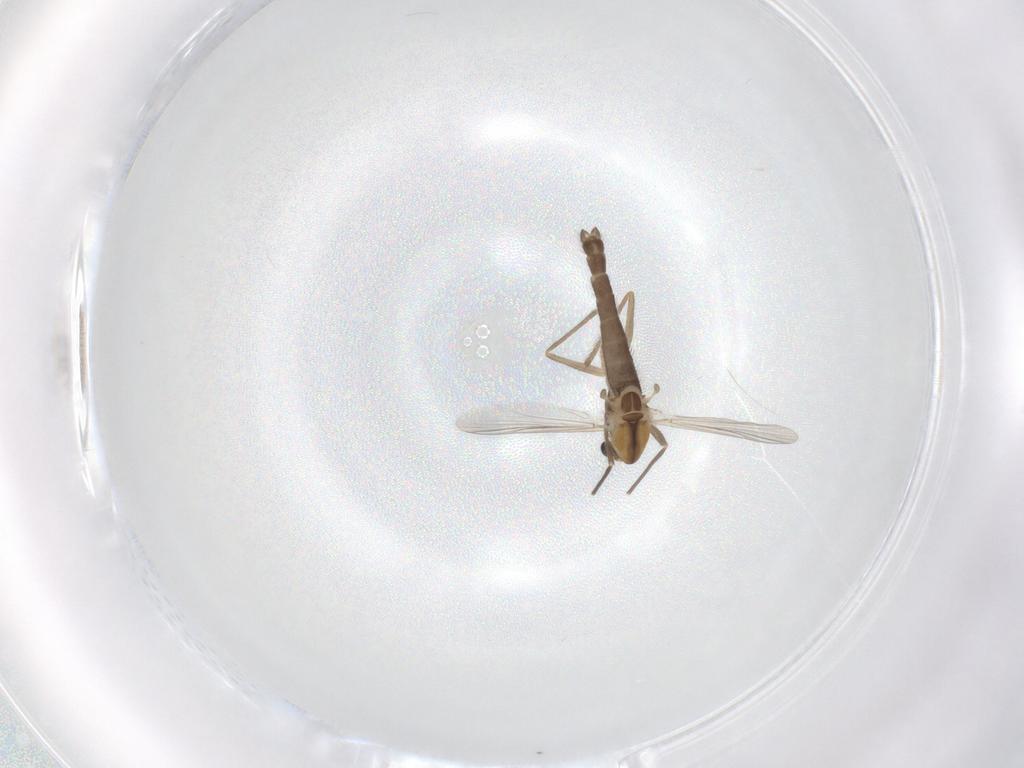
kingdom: Animalia
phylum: Arthropoda
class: Insecta
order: Diptera
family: Chironomidae
